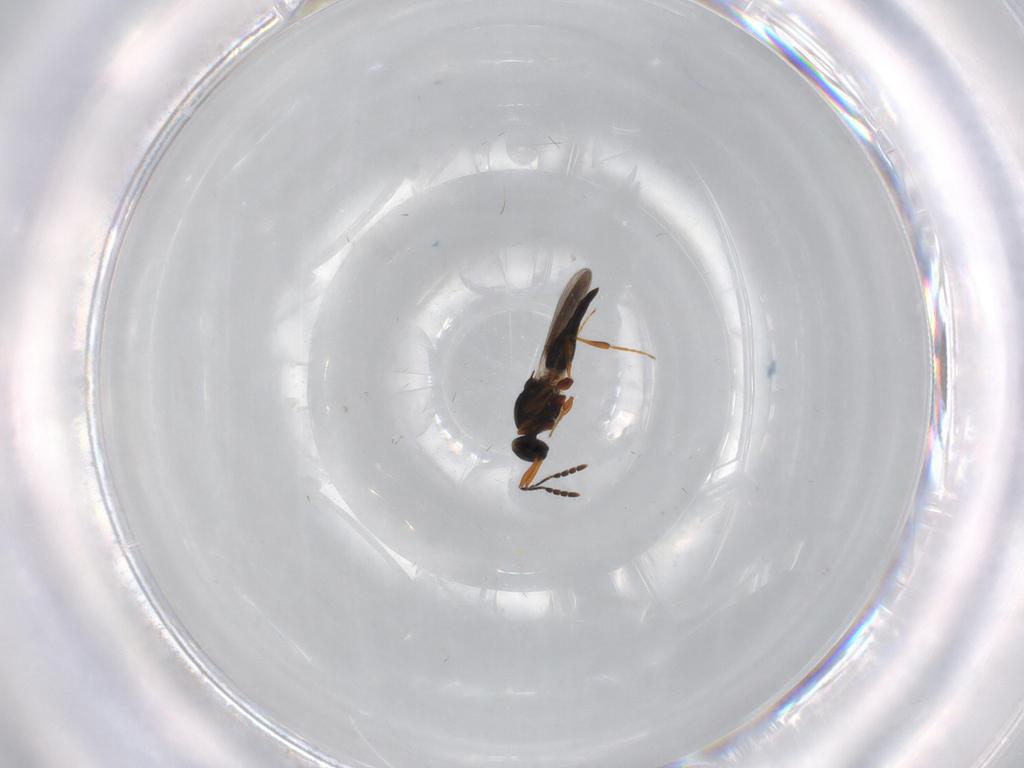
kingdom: Animalia
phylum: Arthropoda
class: Insecta
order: Hymenoptera
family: Platygastridae
